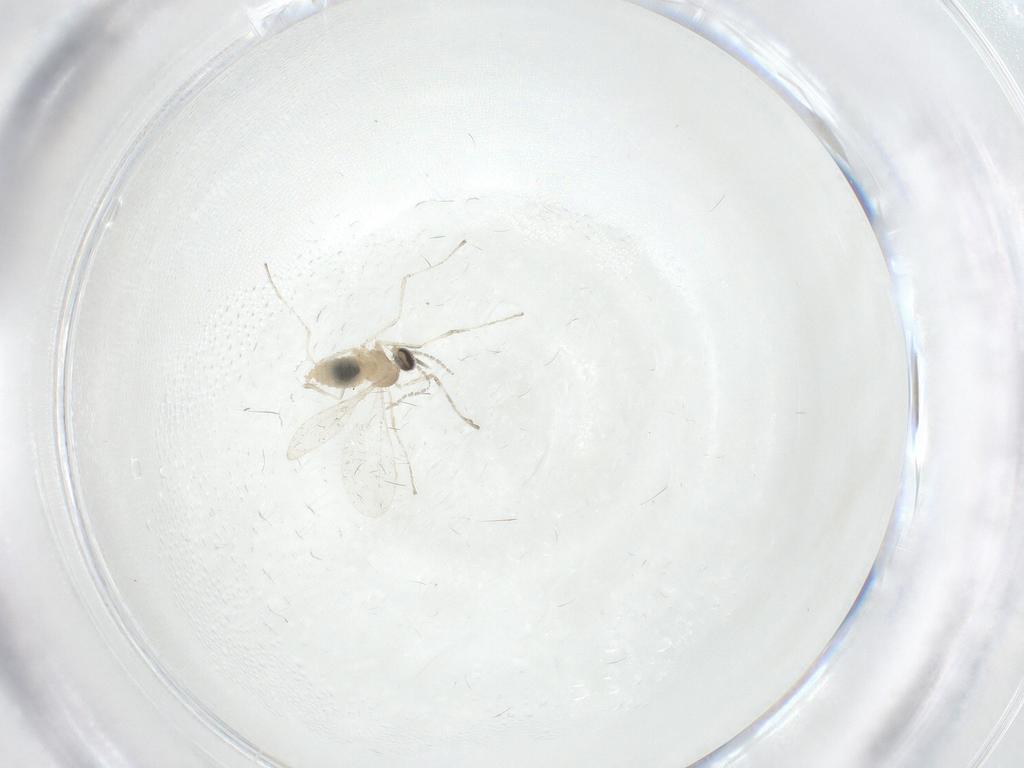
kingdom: Animalia
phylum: Arthropoda
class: Insecta
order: Diptera
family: Cecidomyiidae
